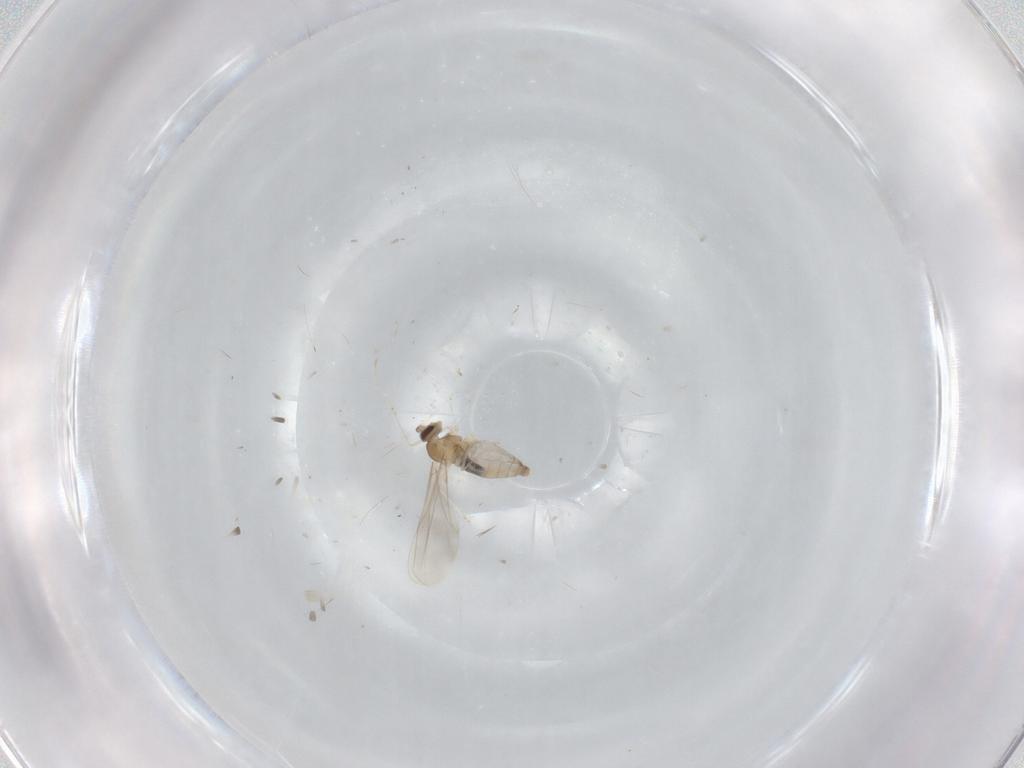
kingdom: Animalia
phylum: Arthropoda
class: Insecta
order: Diptera
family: Cecidomyiidae
